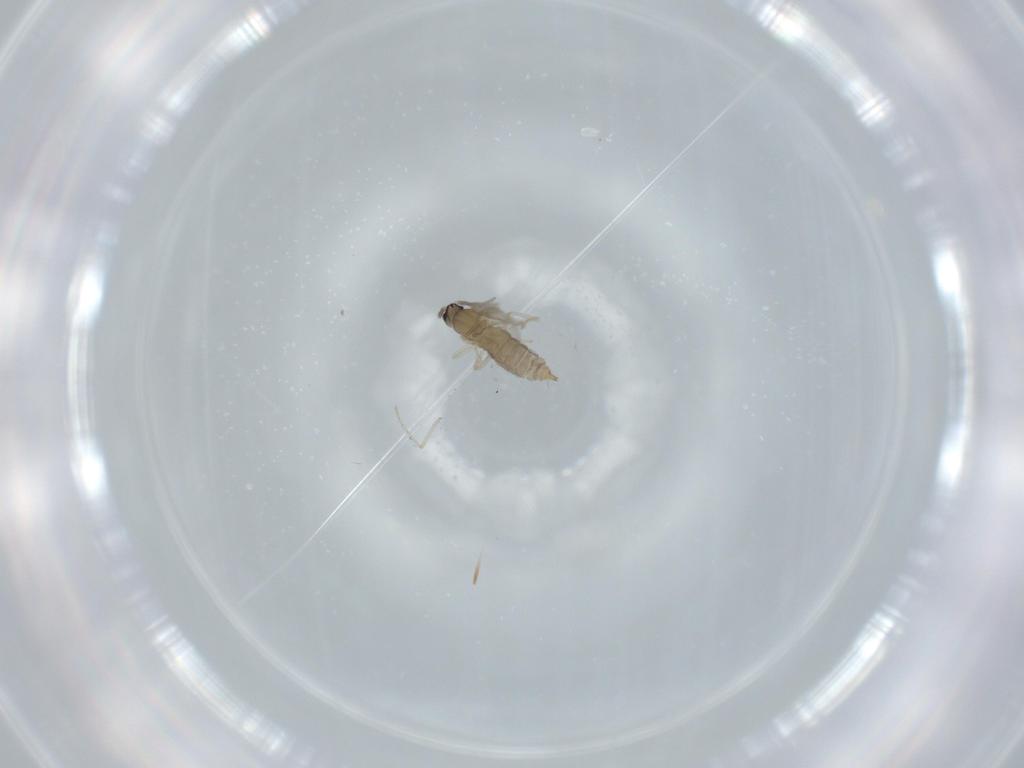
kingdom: Animalia
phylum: Arthropoda
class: Insecta
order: Diptera
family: Cecidomyiidae
